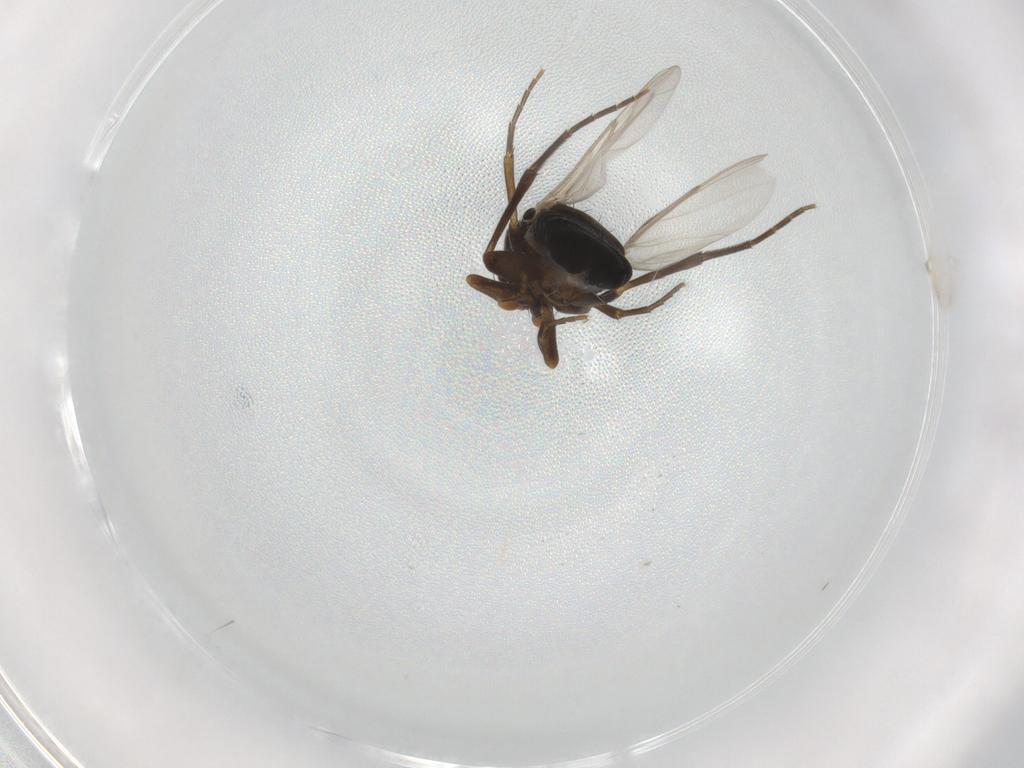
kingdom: Animalia
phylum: Arthropoda
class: Insecta
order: Diptera
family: Phoridae
